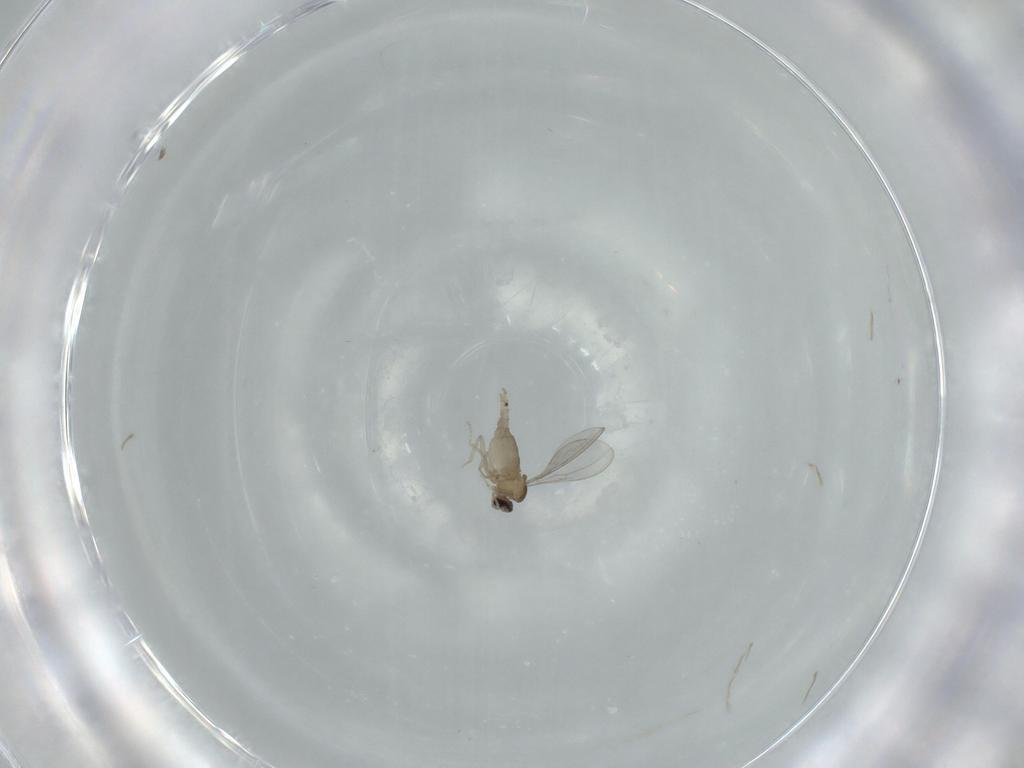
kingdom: Animalia
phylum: Arthropoda
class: Insecta
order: Diptera
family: Cecidomyiidae
